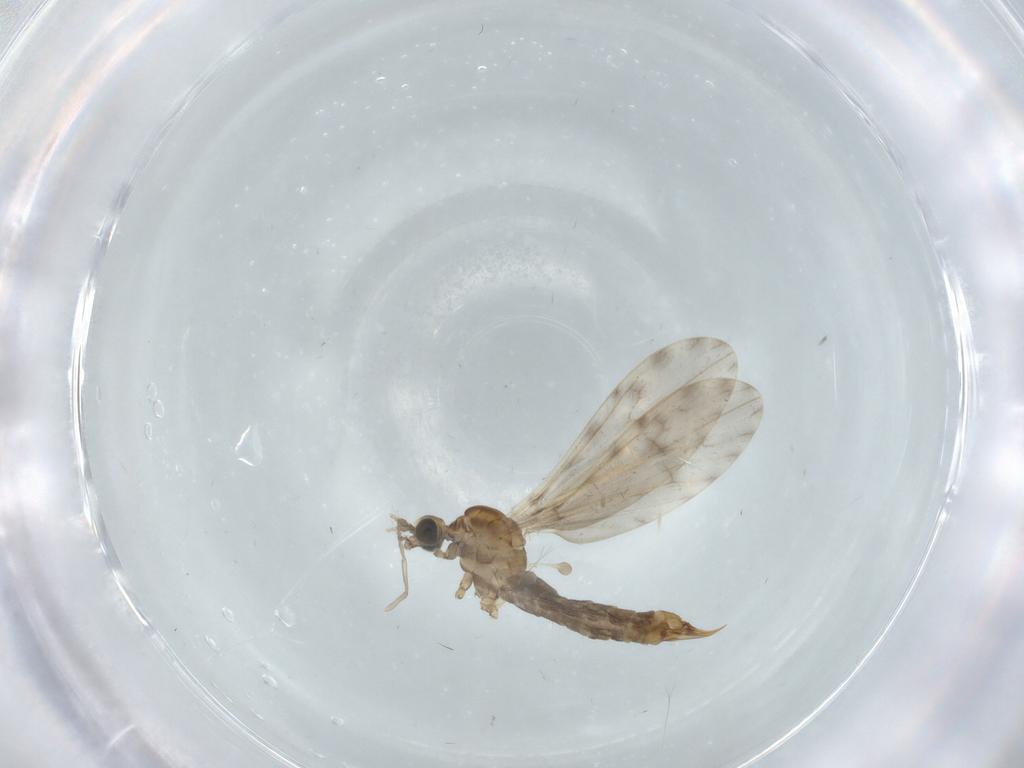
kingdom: Animalia
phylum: Arthropoda
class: Insecta
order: Diptera
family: Limoniidae
